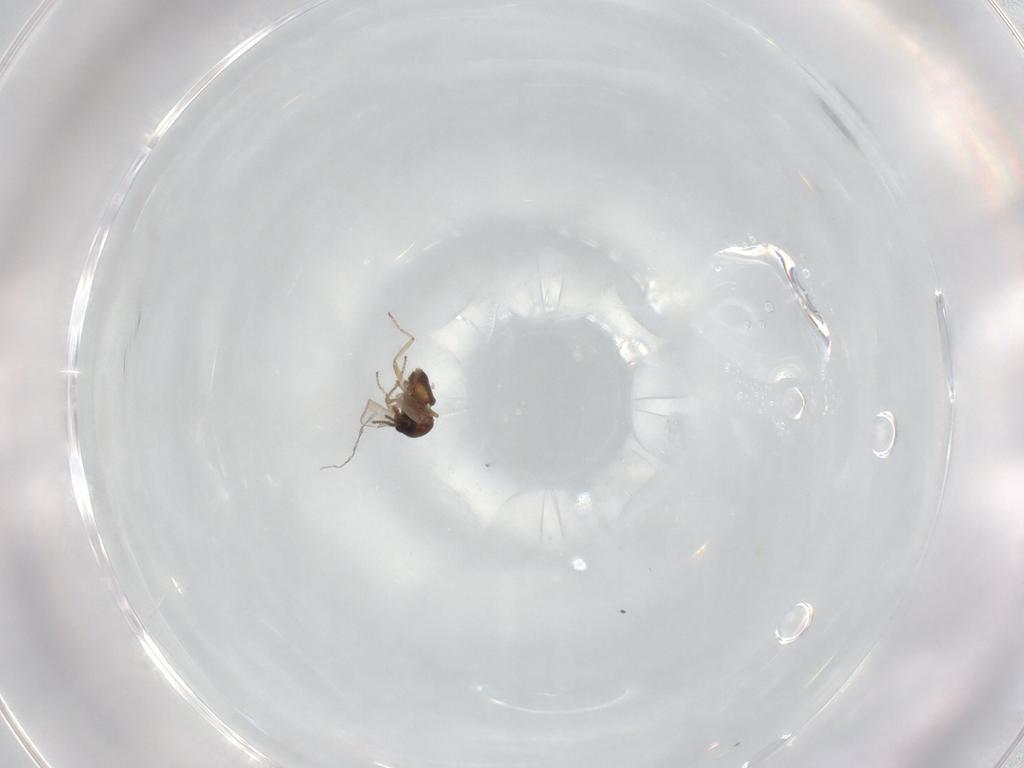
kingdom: Animalia
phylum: Arthropoda
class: Insecta
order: Diptera
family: Ceratopogonidae
